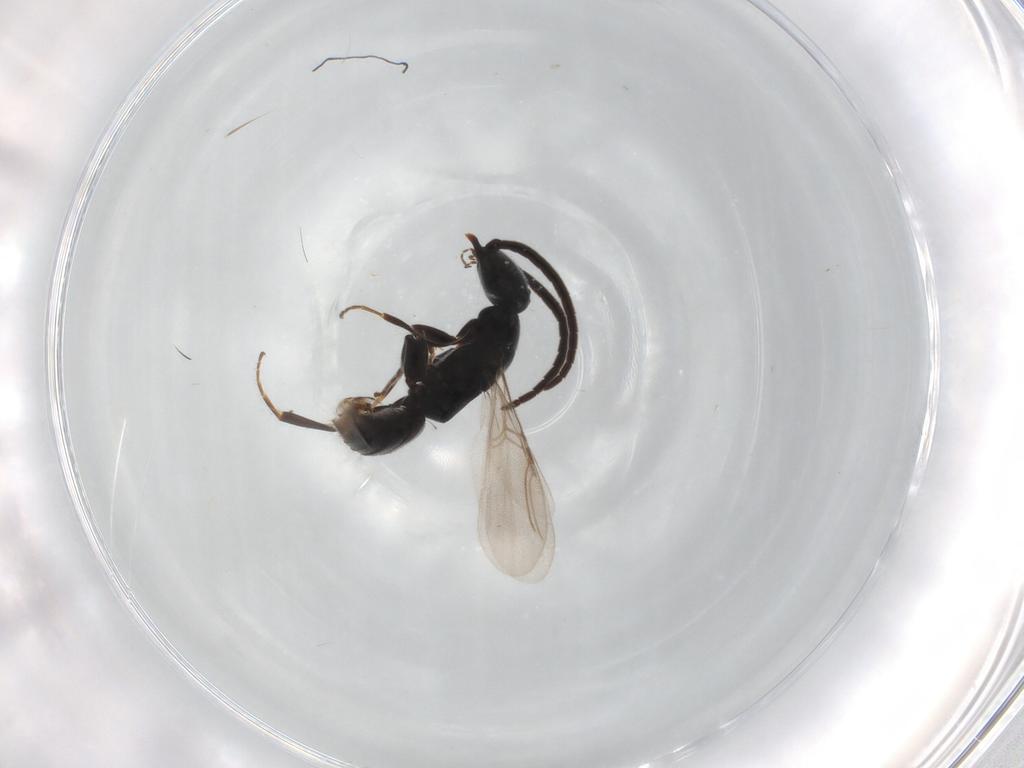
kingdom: Animalia
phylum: Arthropoda
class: Insecta
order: Hymenoptera
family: Bethylidae
